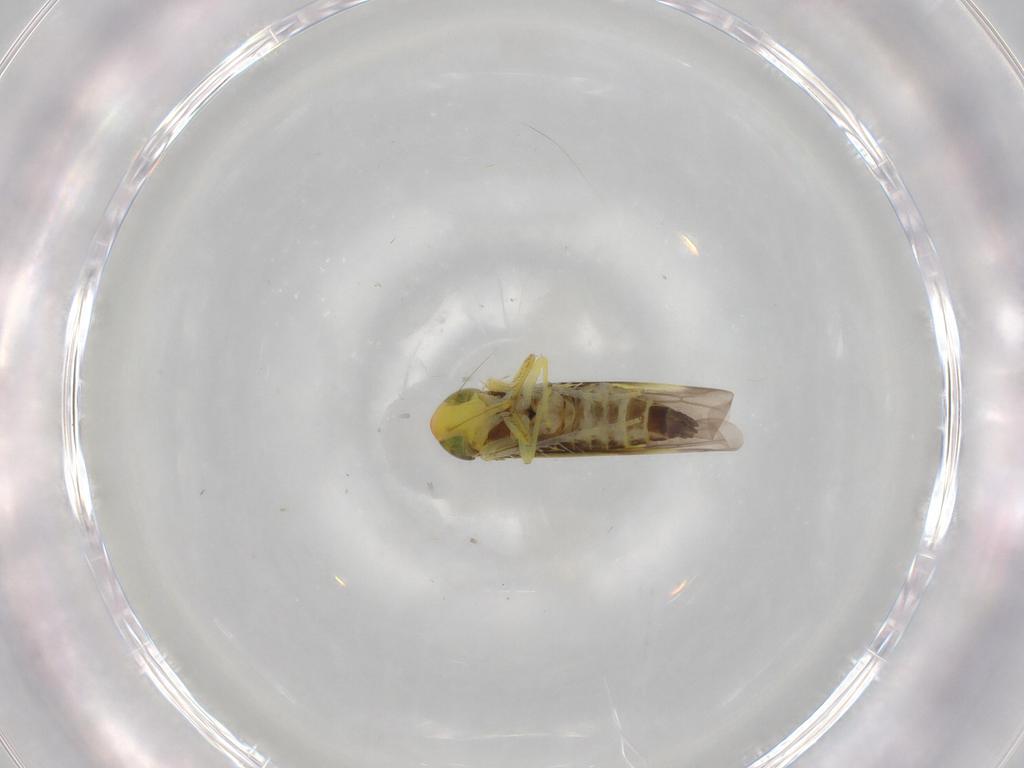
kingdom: Animalia
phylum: Arthropoda
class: Insecta
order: Hemiptera
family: Cicadellidae
